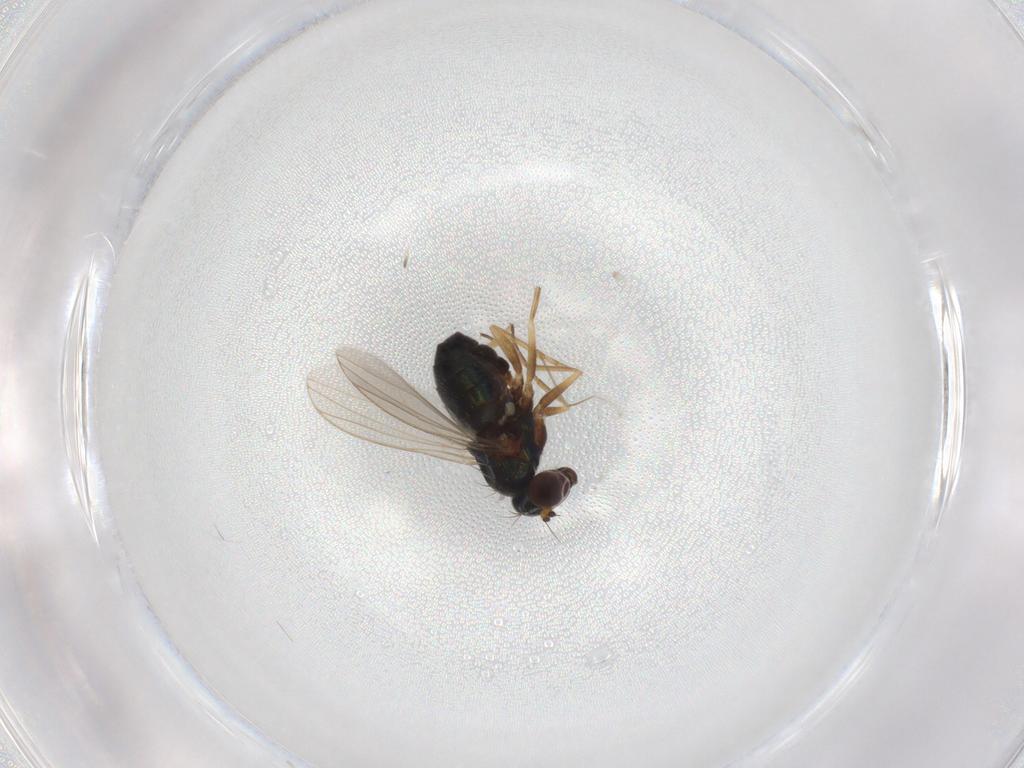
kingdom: Animalia
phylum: Arthropoda
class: Insecta
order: Diptera
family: Dolichopodidae
